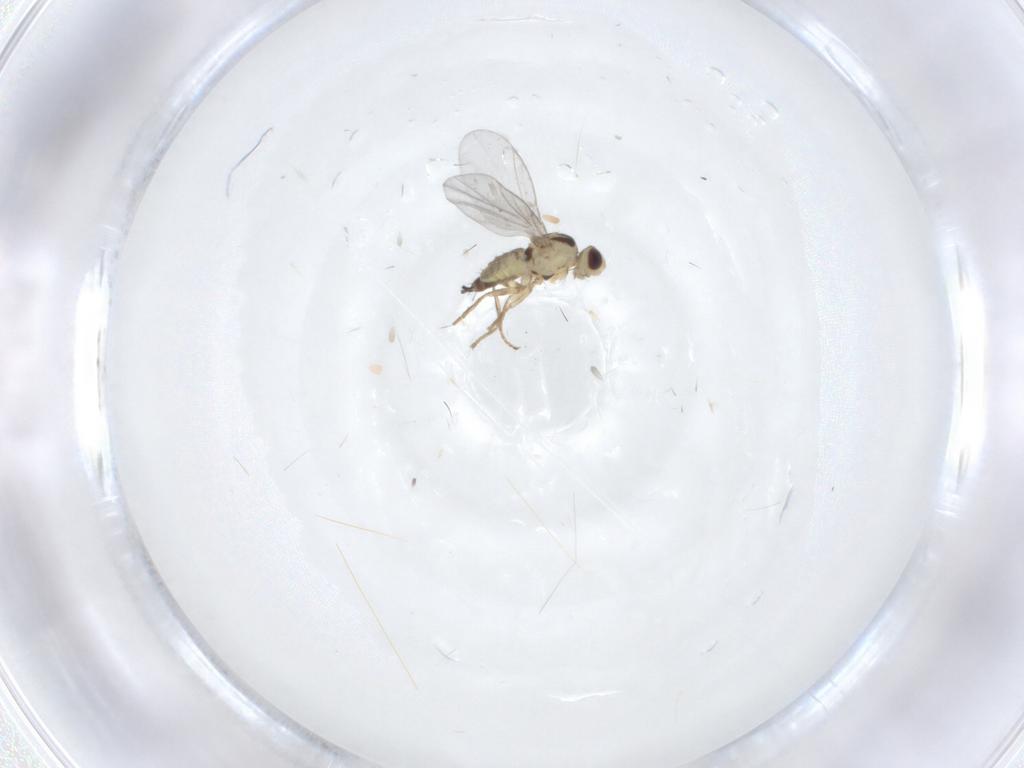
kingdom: Animalia
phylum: Arthropoda
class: Insecta
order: Diptera
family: Agromyzidae
